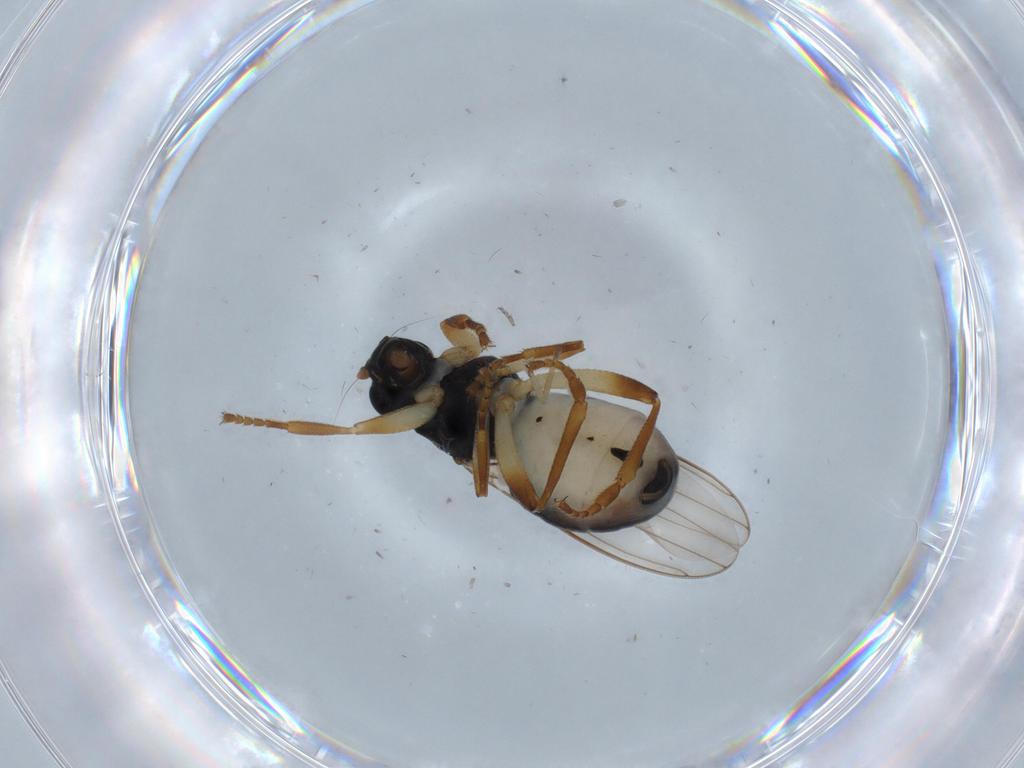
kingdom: Animalia
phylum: Arthropoda
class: Insecta
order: Diptera
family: Sphaeroceridae
